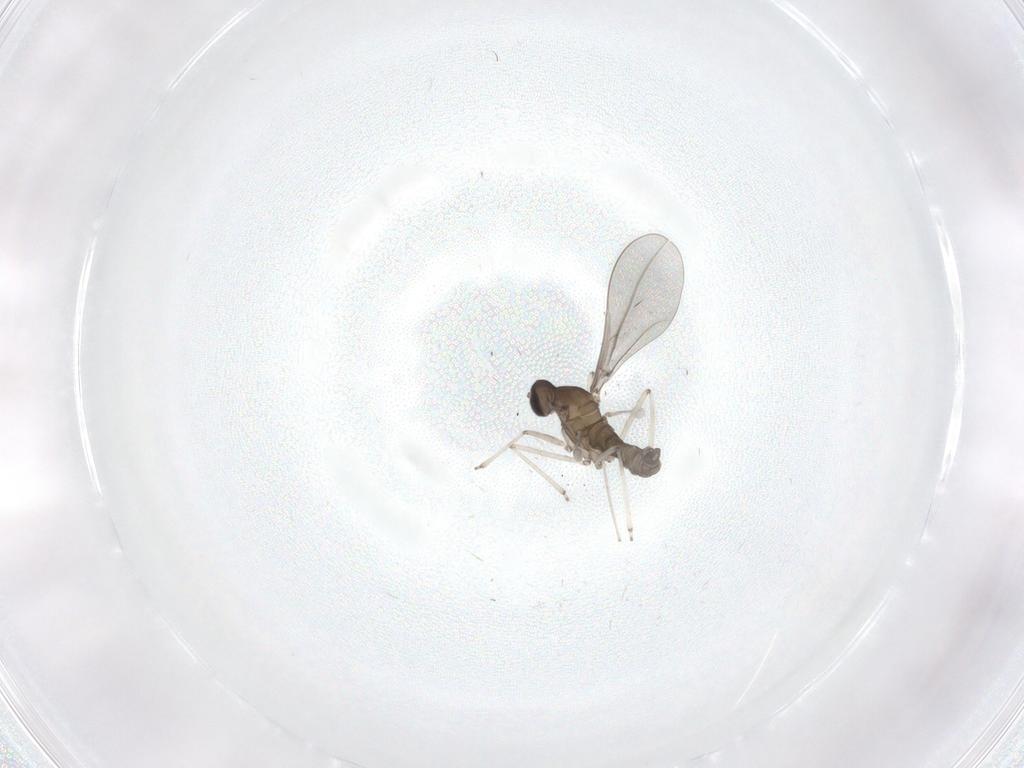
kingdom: Animalia
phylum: Arthropoda
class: Insecta
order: Diptera
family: Cecidomyiidae
